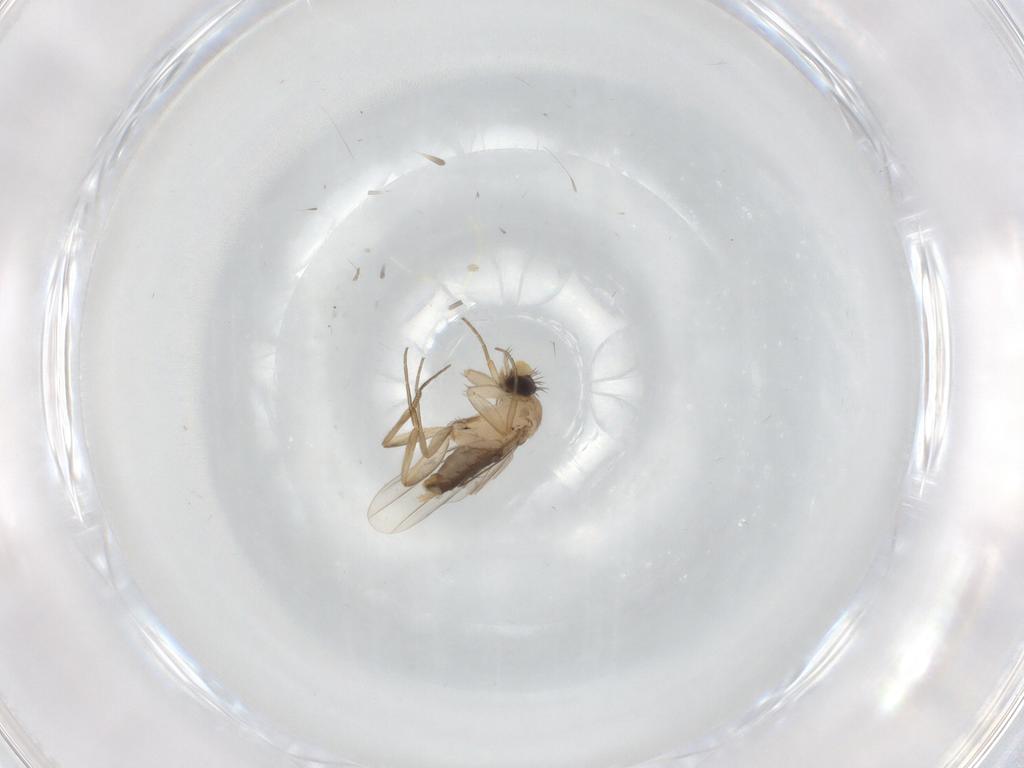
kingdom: Animalia
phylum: Arthropoda
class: Insecta
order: Diptera
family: Phoridae
